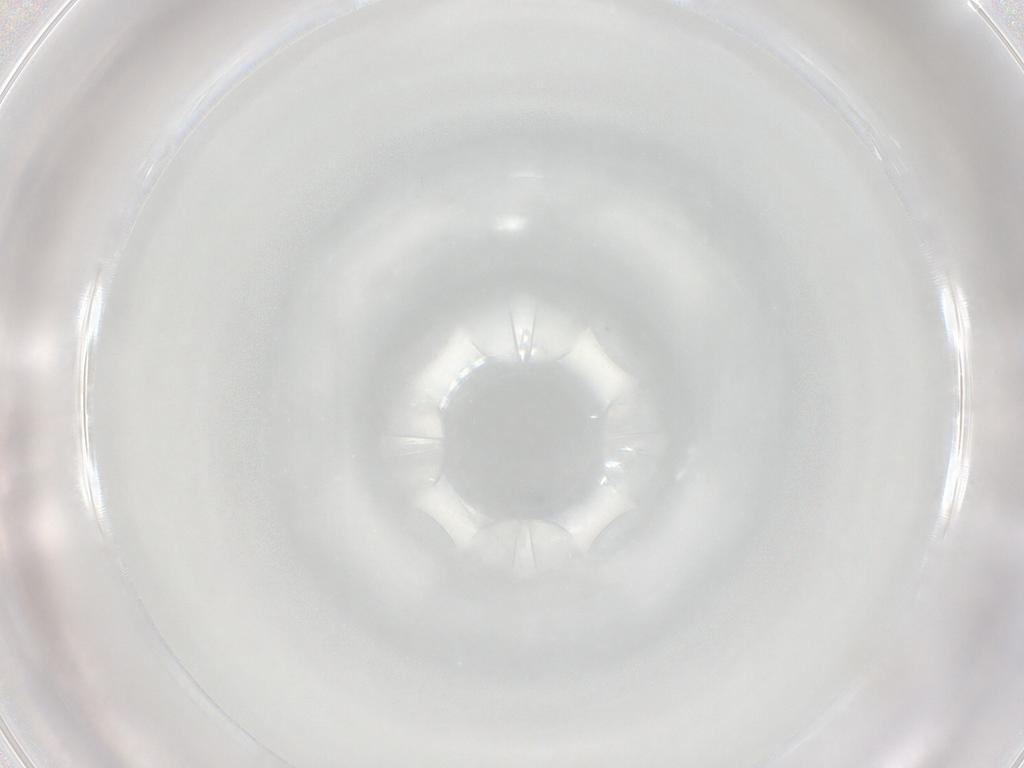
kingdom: Animalia
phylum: Arthropoda
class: Arachnida
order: Trombidiformes
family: Lebertiidae
